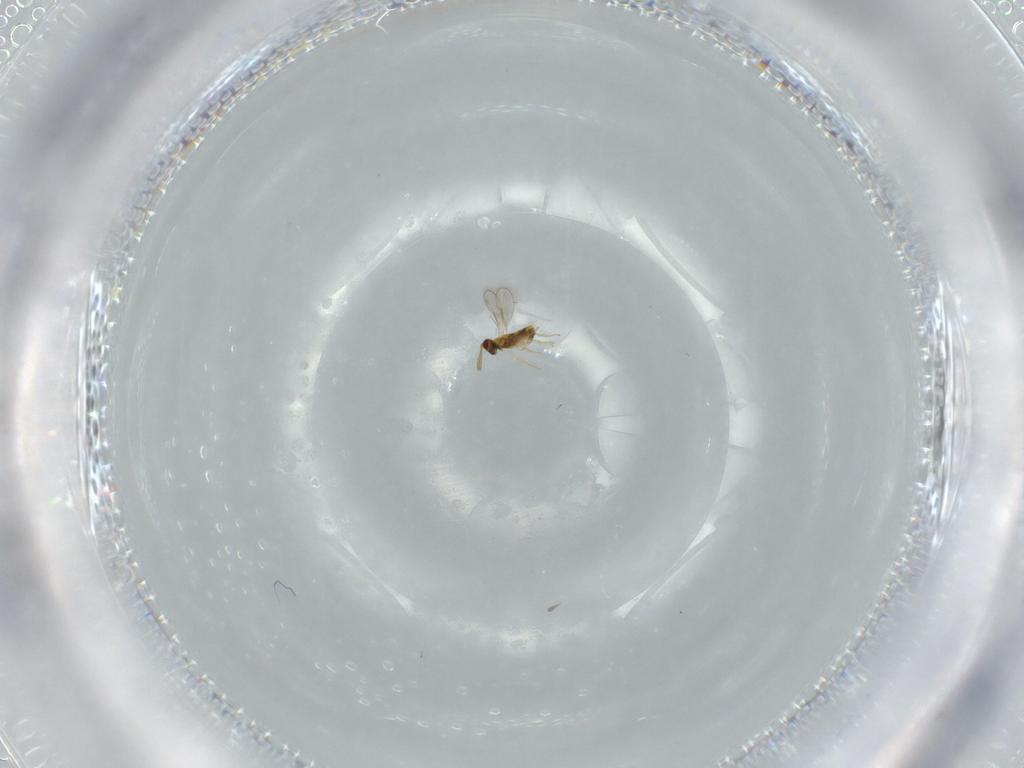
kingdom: Animalia
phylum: Arthropoda
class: Insecta
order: Hymenoptera
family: Aphelinidae
